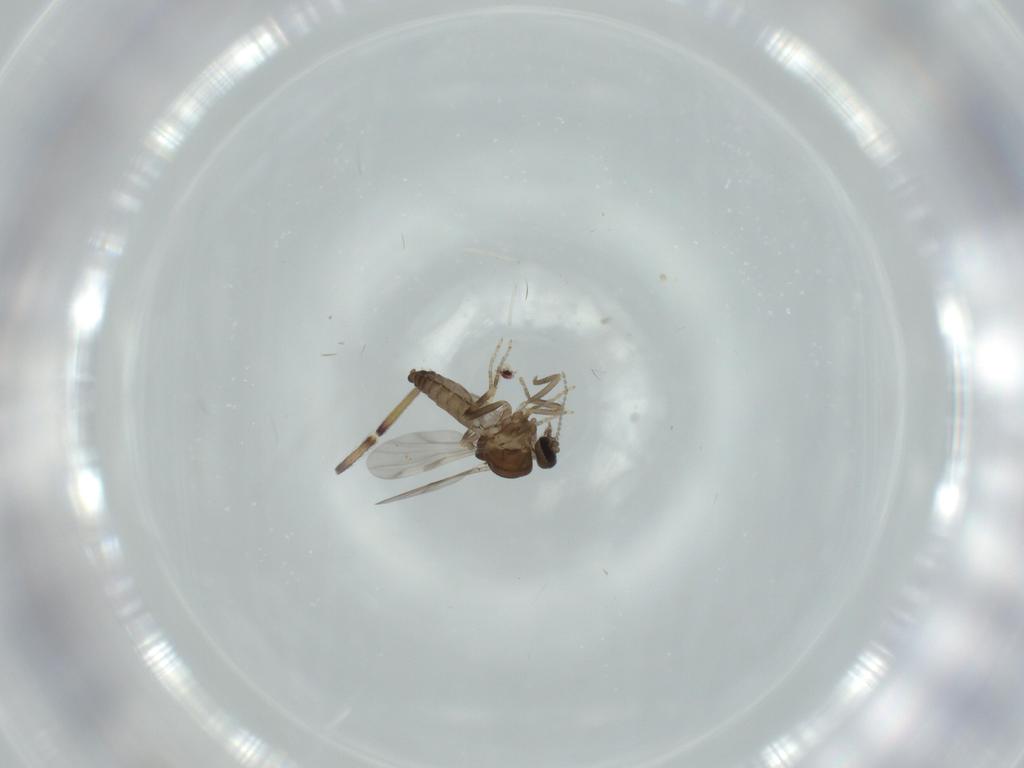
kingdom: Animalia
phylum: Arthropoda
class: Insecta
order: Diptera
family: Ceratopogonidae
